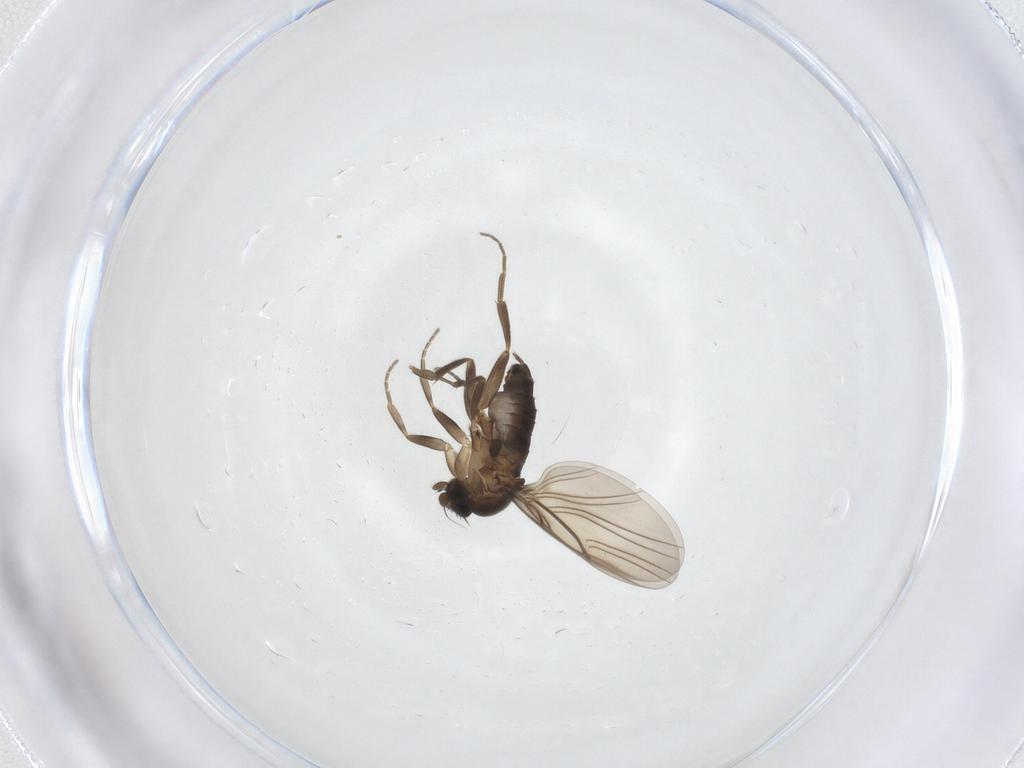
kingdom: Animalia
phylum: Arthropoda
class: Insecta
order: Diptera
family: Phoridae
